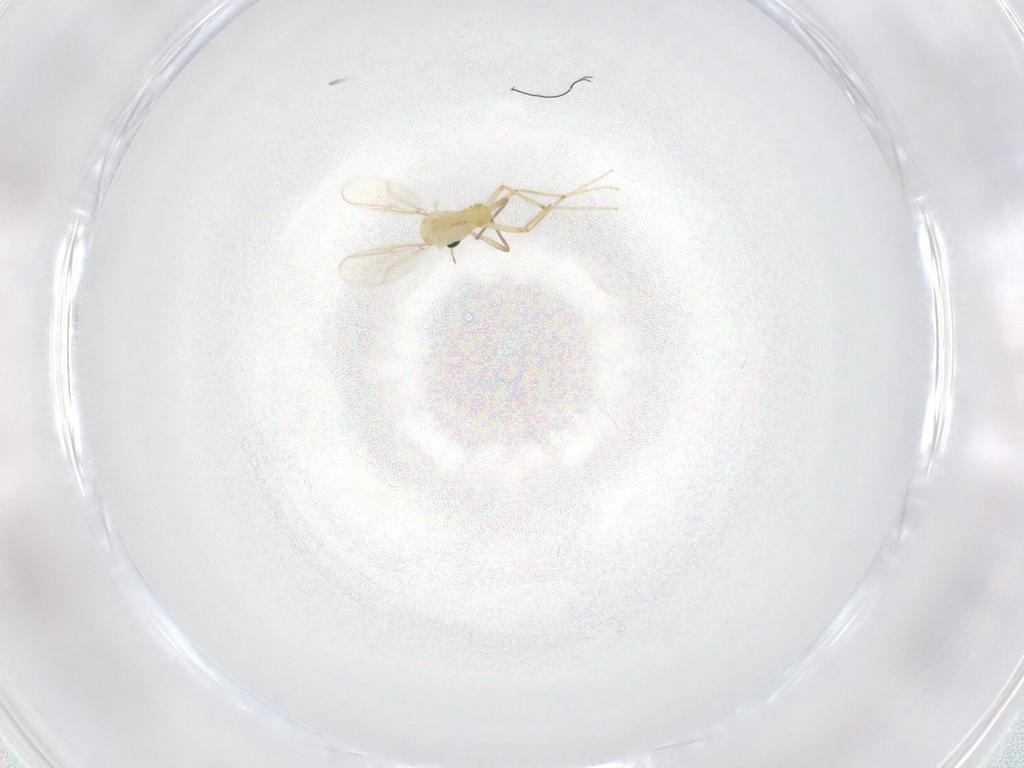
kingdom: Animalia
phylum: Arthropoda
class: Insecta
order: Diptera
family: Chironomidae
